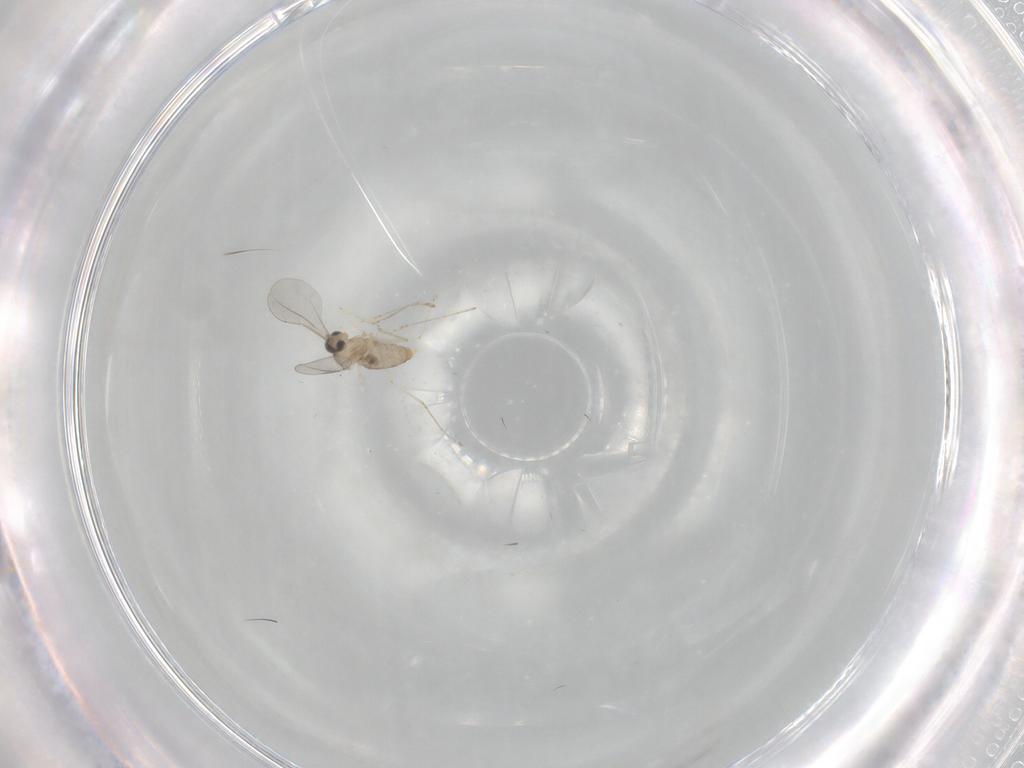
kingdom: Animalia
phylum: Arthropoda
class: Insecta
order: Diptera
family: Cecidomyiidae
